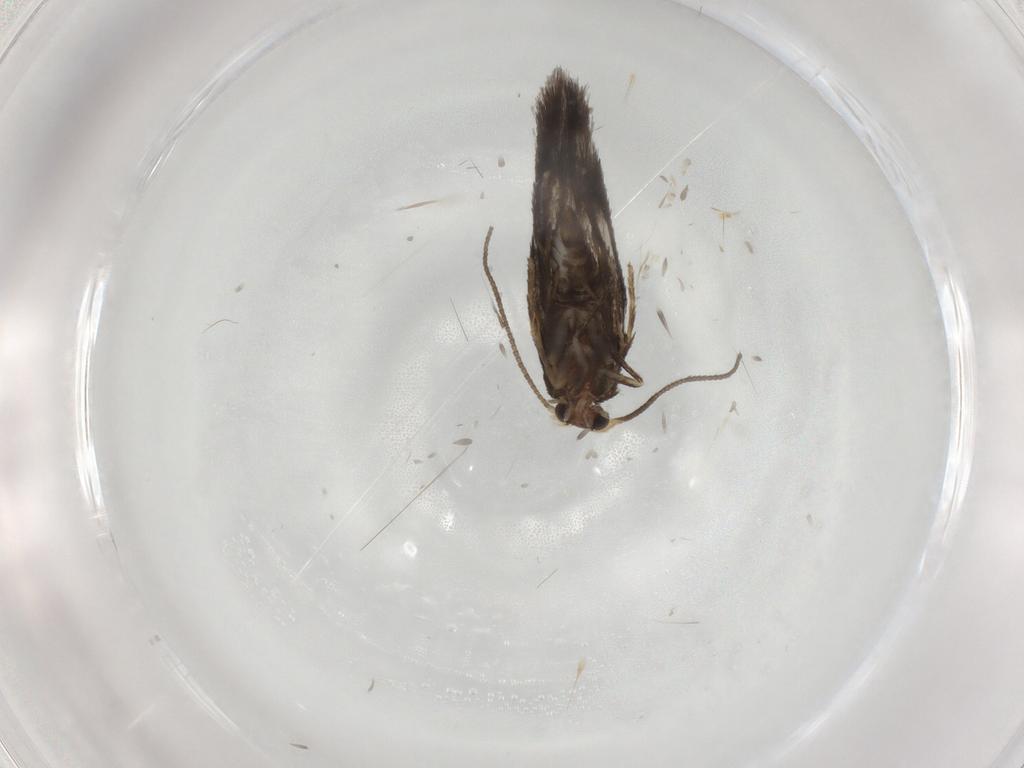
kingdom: Animalia
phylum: Arthropoda
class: Insecta
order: Lepidoptera
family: Nepticulidae
